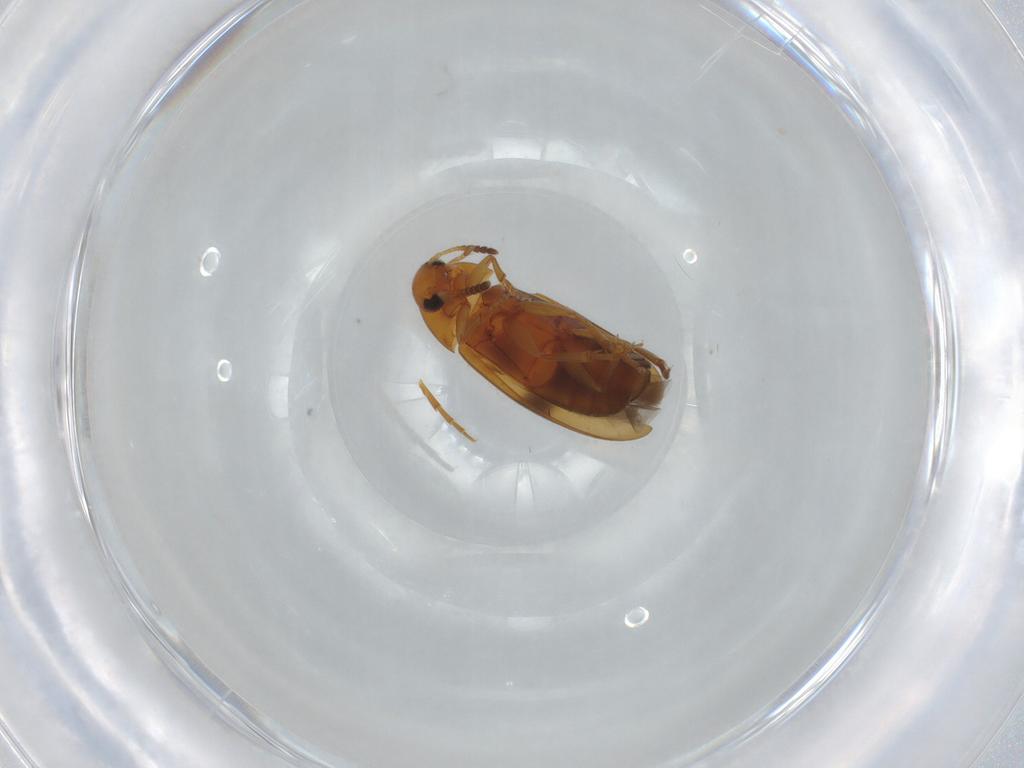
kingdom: Animalia
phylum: Arthropoda
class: Insecta
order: Coleoptera
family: Scraptiidae
